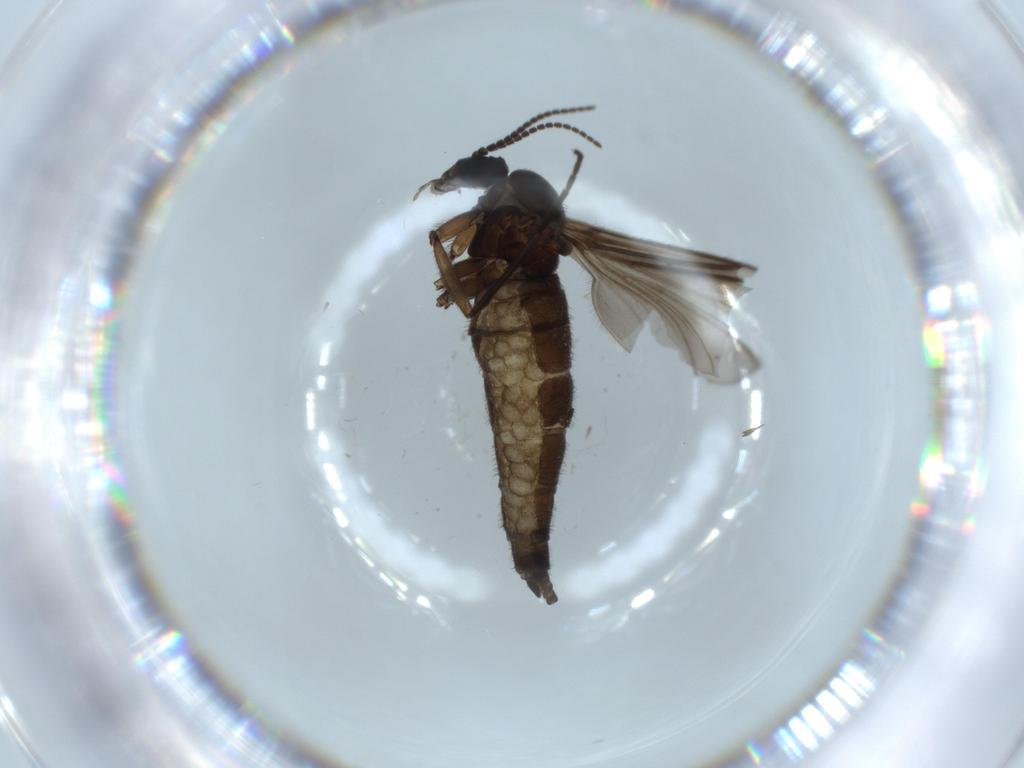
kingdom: Animalia
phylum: Arthropoda
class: Insecta
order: Diptera
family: Sciaridae
